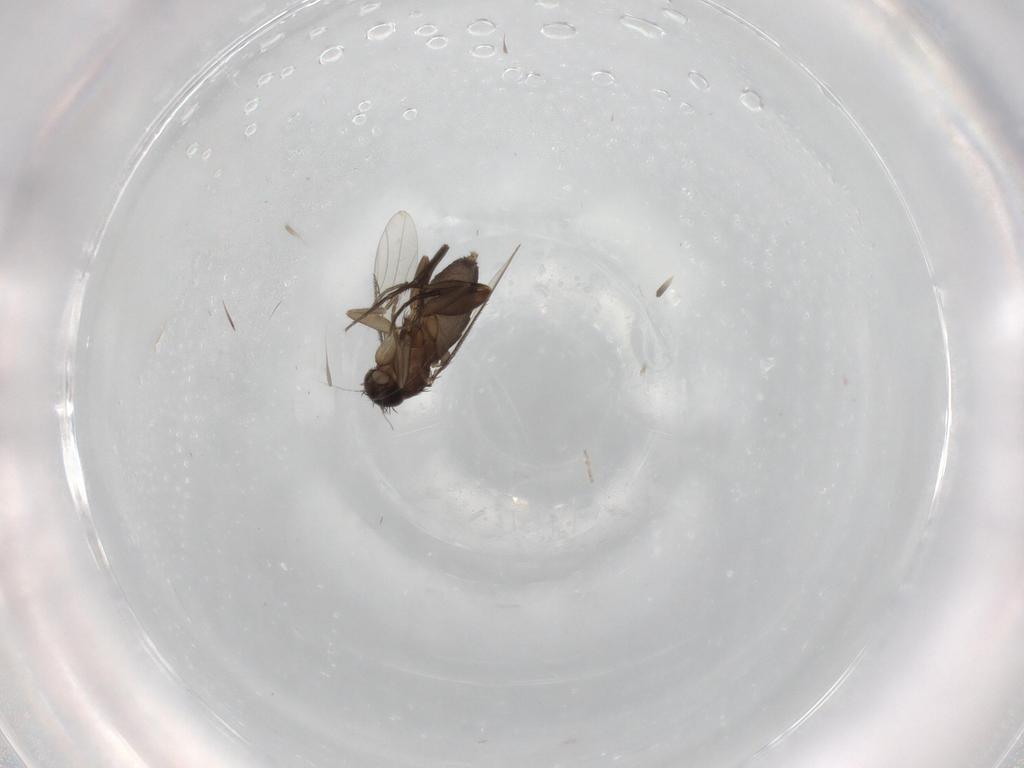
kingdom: Animalia
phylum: Arthropoda
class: Insecta
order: Diptera
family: Phoridae
